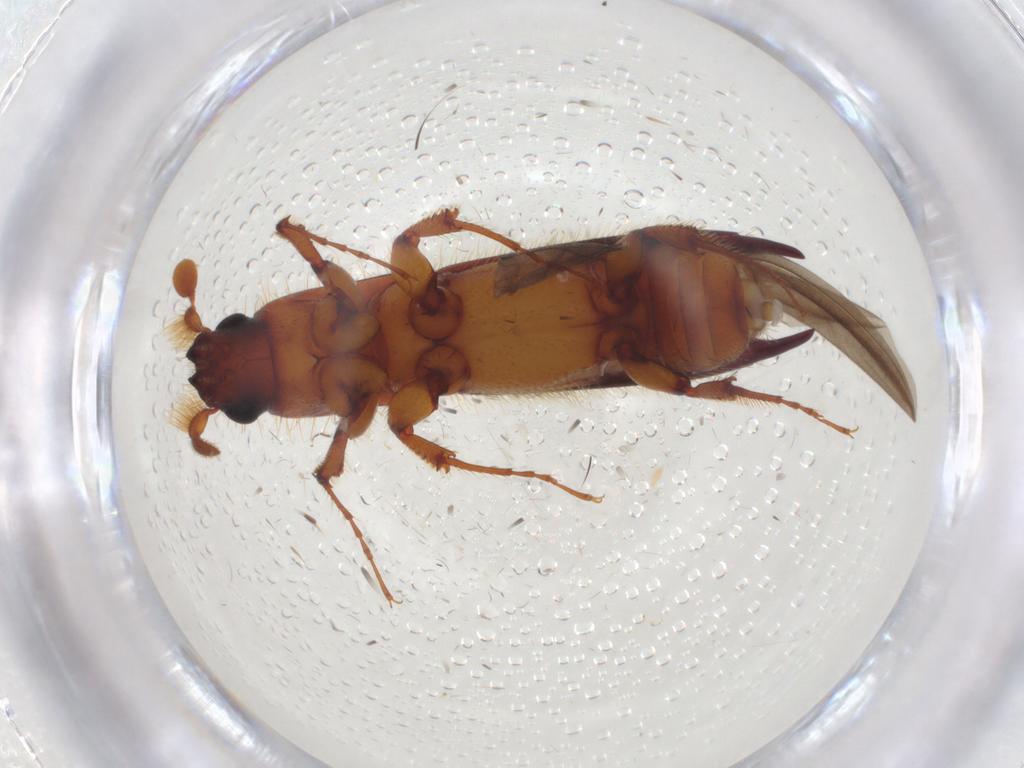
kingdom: Animalia
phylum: Arthropoda
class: Insecta
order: Coleoptera
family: Curculionidae
